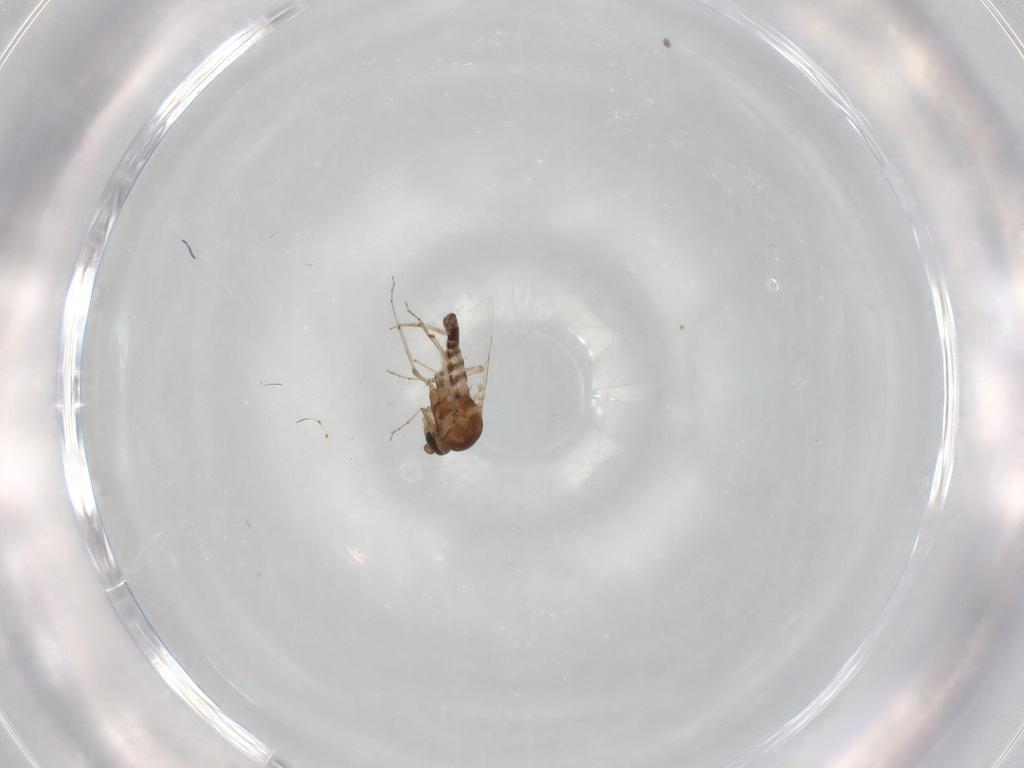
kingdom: Animalia
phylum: Arthropoda
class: Insecta
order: Diptera
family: Ceratopogonidae
